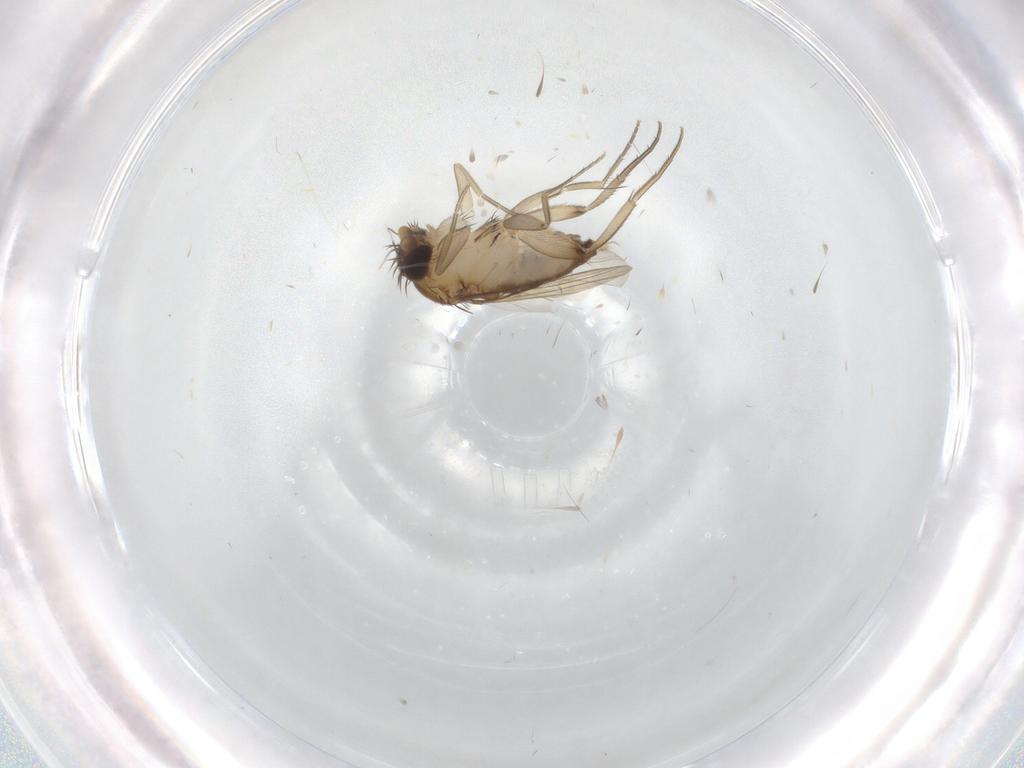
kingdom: Animalia
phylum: Arthropoda
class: Insecta
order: Diptera
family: Phoridae
